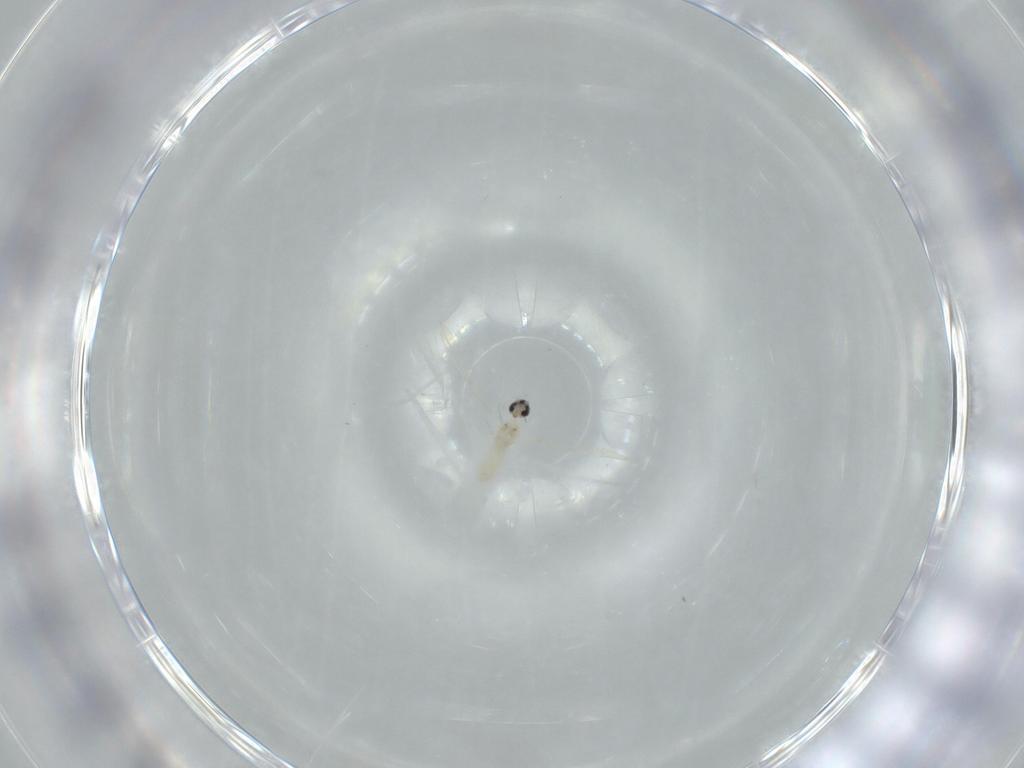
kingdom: Animalia
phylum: Arthropoda
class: Insecta
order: Diptera
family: Cecidomyiidae
